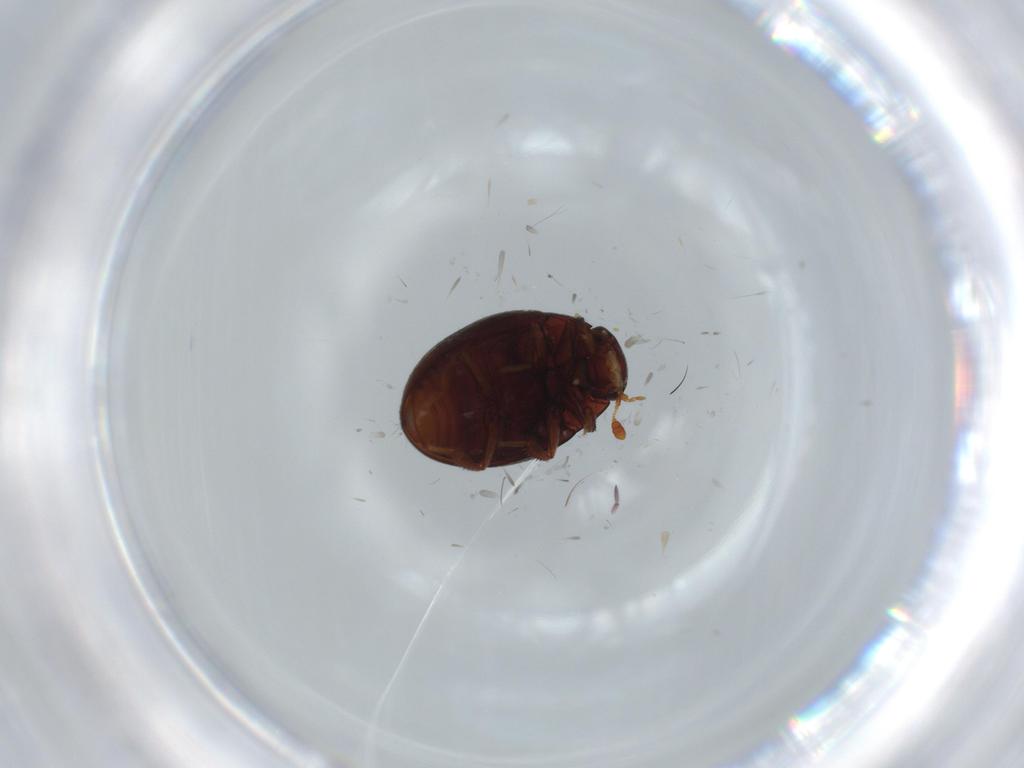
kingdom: Animalia
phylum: Arthropoda
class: Insecta
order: Coleoptera
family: Hydrophilidae
